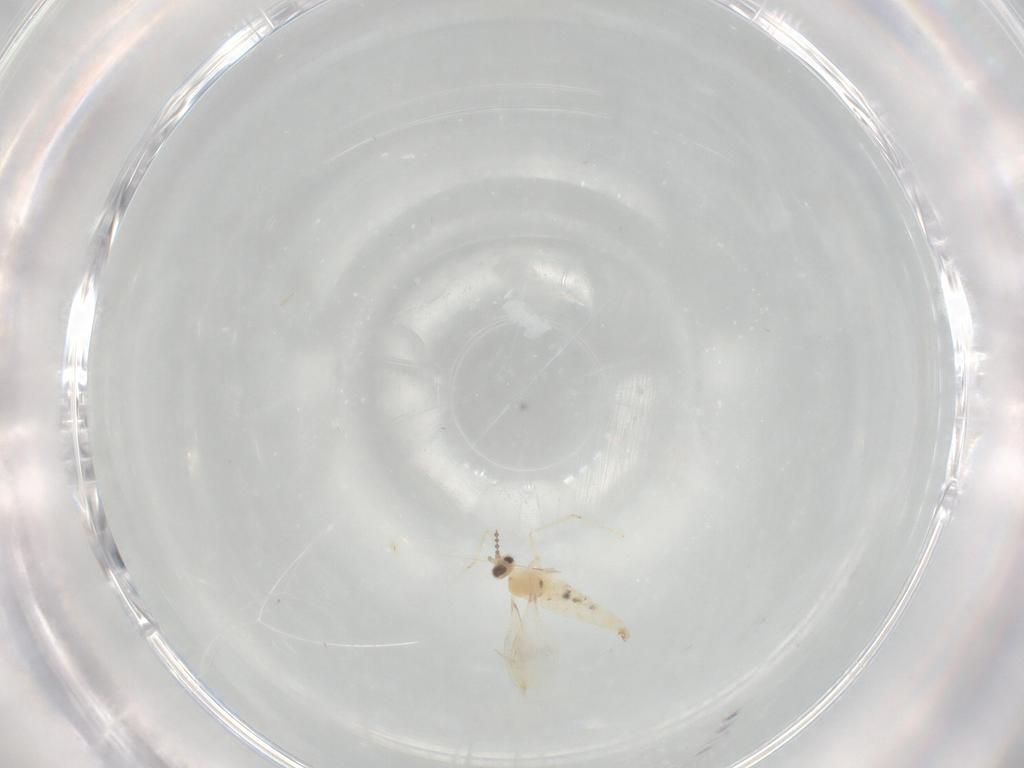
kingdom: Animalia
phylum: Arthropoda
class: Insecta
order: Diptera
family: Cecidomyiidae
